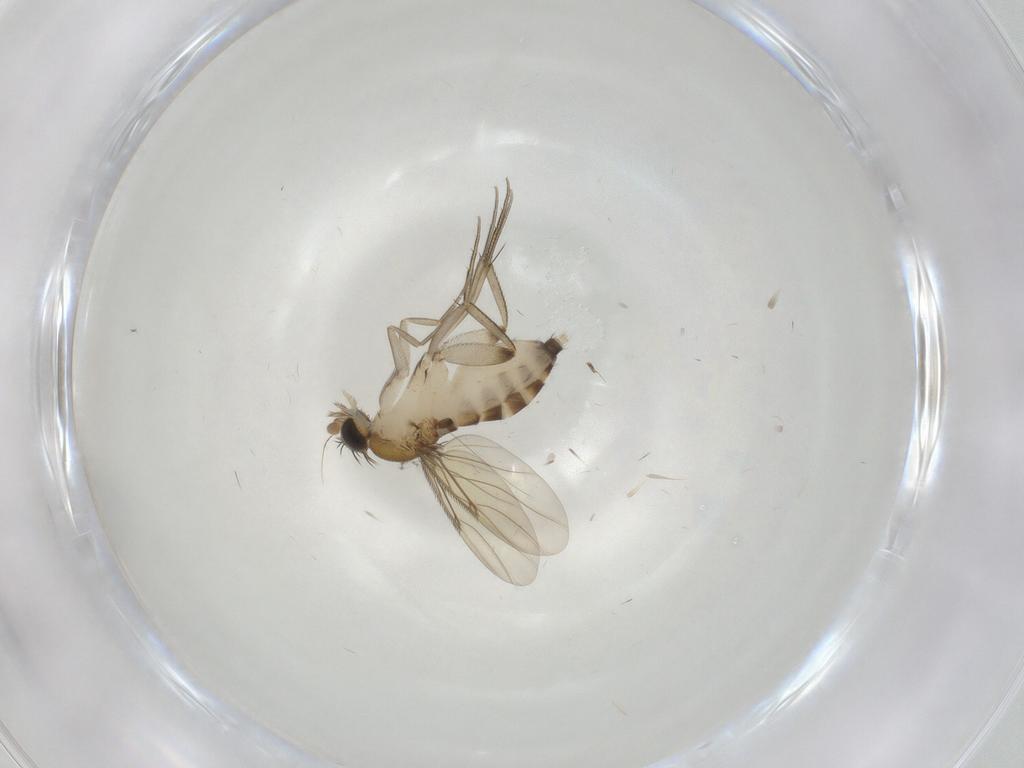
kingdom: Animalia
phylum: Arthropoda
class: Insecta
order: Diptera
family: Phoridae
